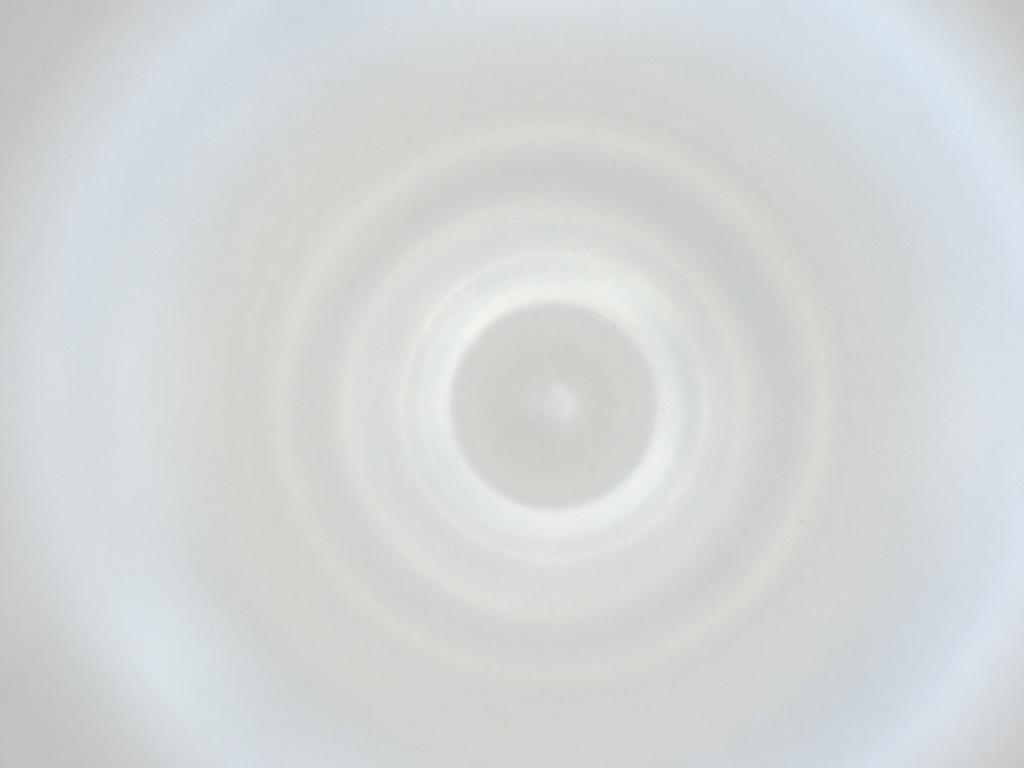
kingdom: Animalia
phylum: Arthropoda
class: Insecta
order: Diptera
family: Cecidomyiidae
